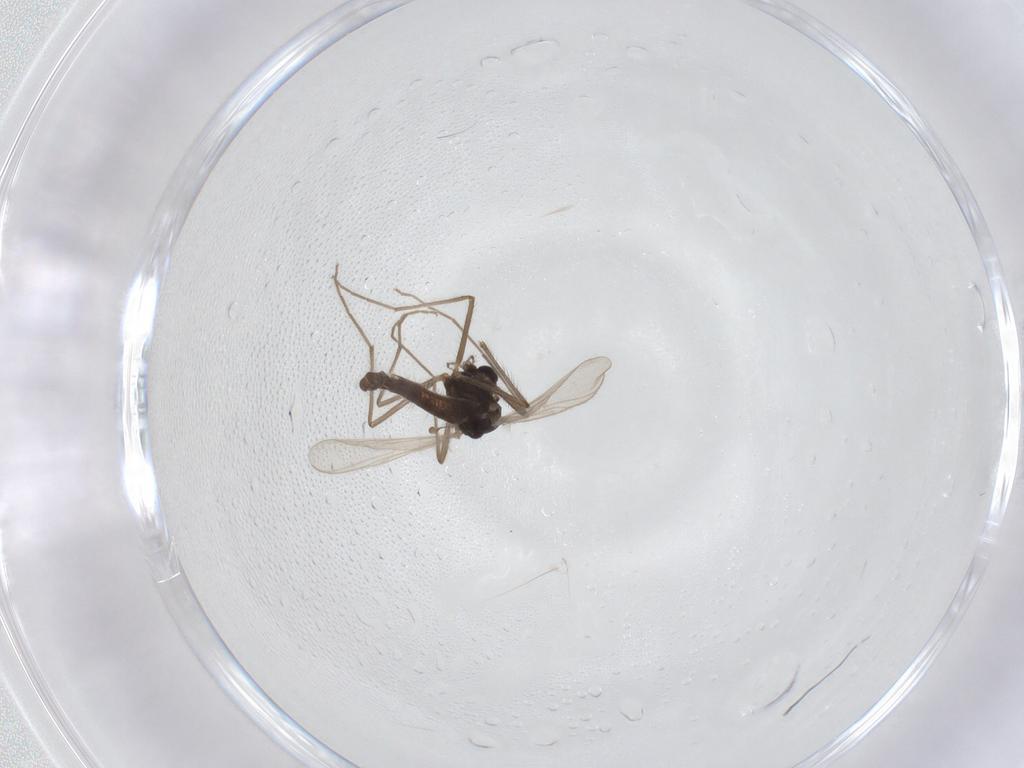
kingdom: Animalia
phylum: Arthropoda
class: Insecta
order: Diptera
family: Chironomidae
